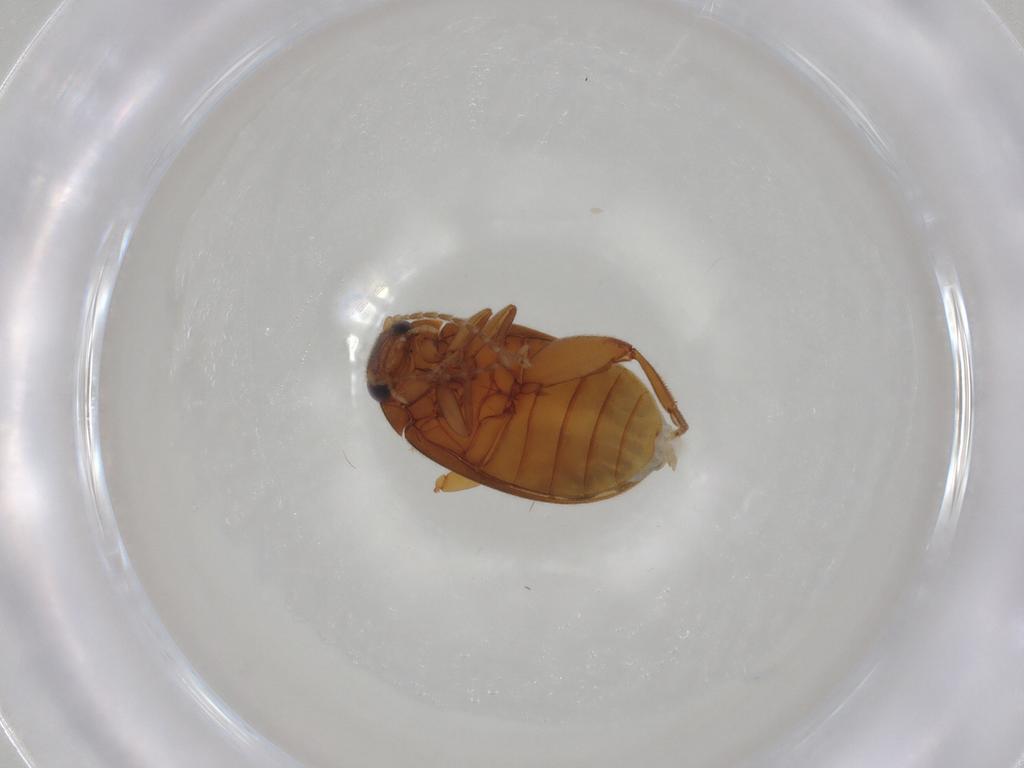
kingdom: Animalia
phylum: Arthropoda
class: Insecta
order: Coleoptera
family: Scirtidae
